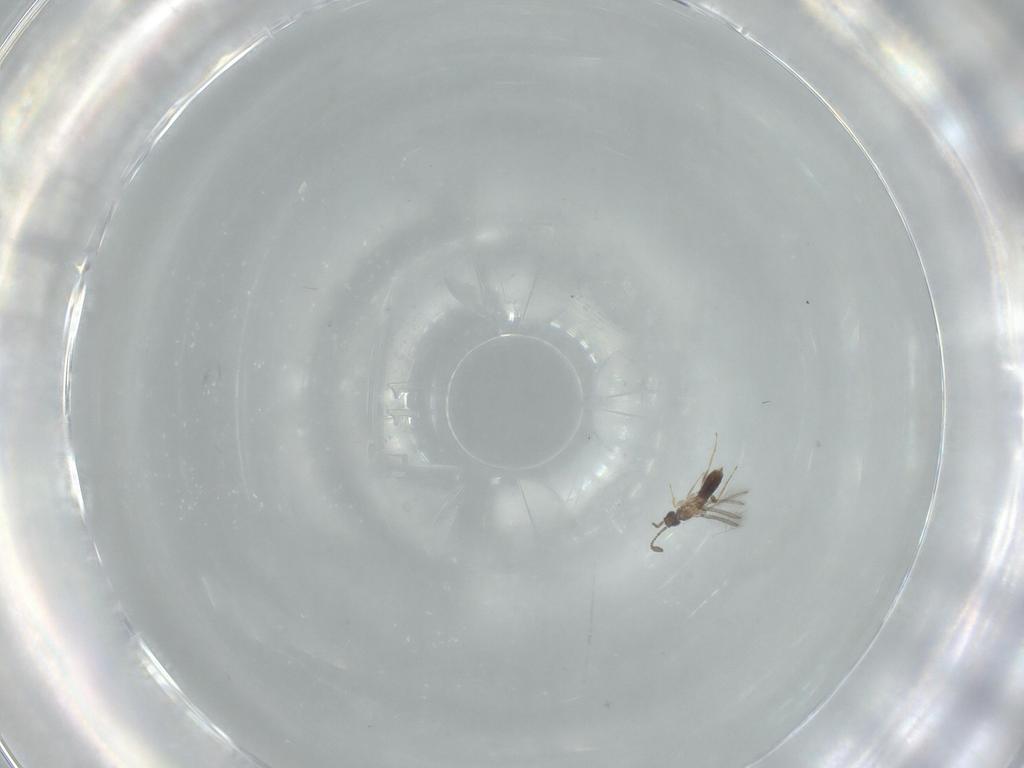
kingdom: Animalia
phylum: Arthropoda
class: Insecta
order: Hymenoptera
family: Mymaridae
